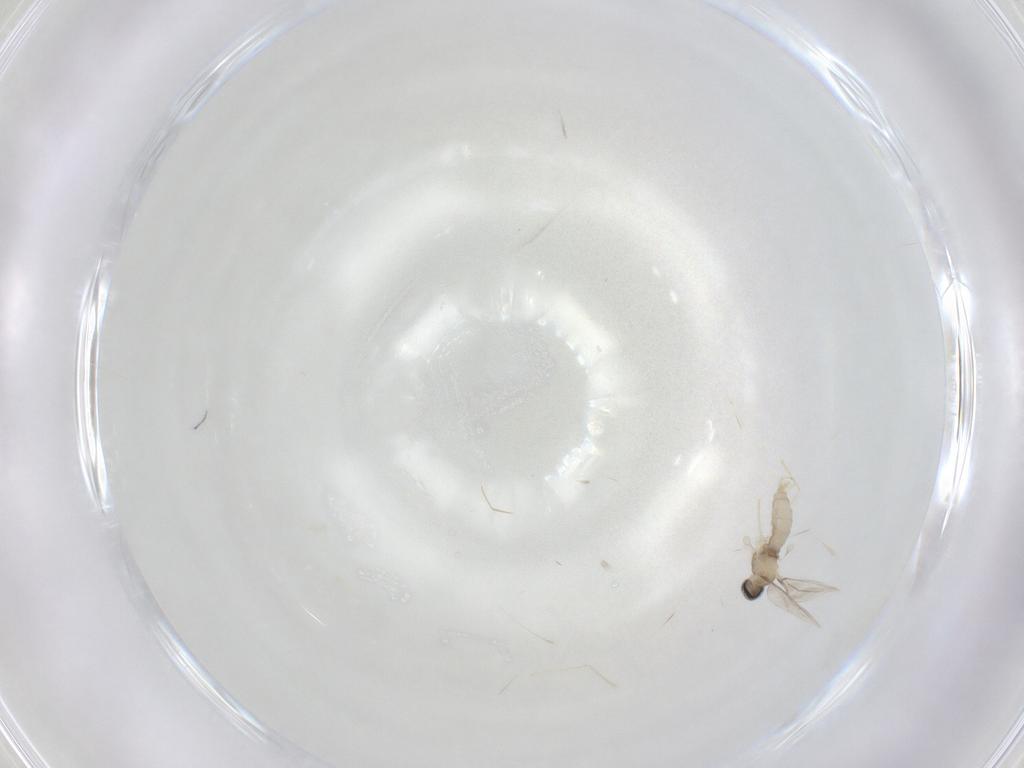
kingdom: Animalia
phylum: Arthropoda
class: Insecta
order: Diptera
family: Cecidomyiidae
